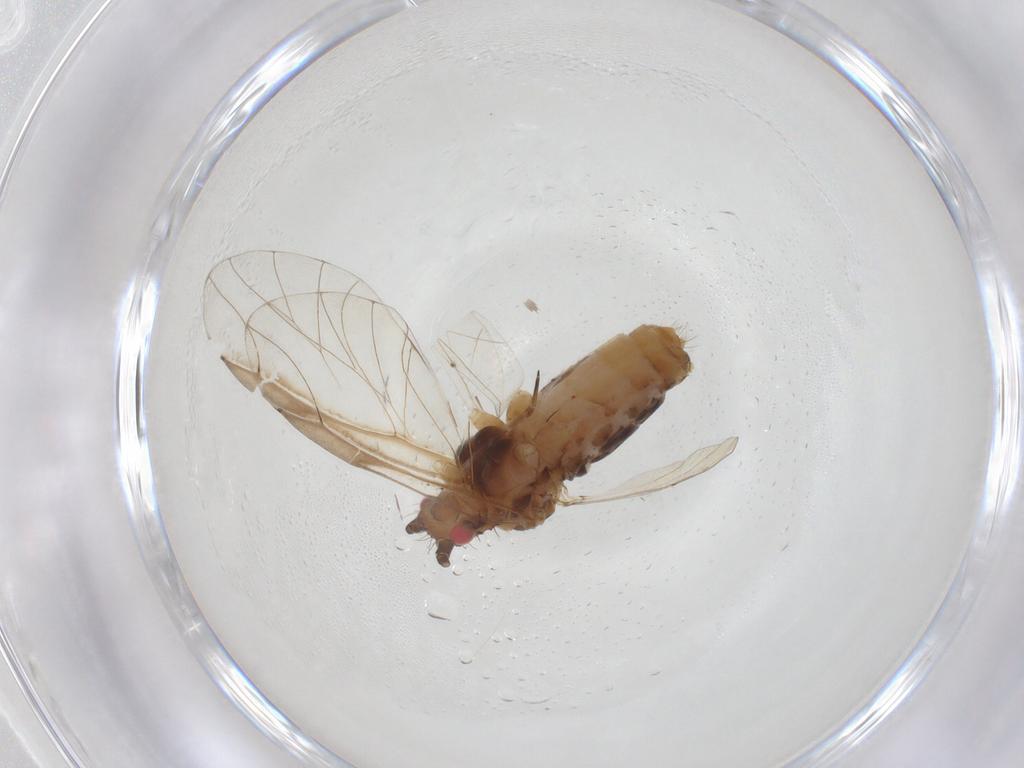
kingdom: Animalia
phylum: Arthropoda
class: Insecta
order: Hemiptera
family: Aphididae
